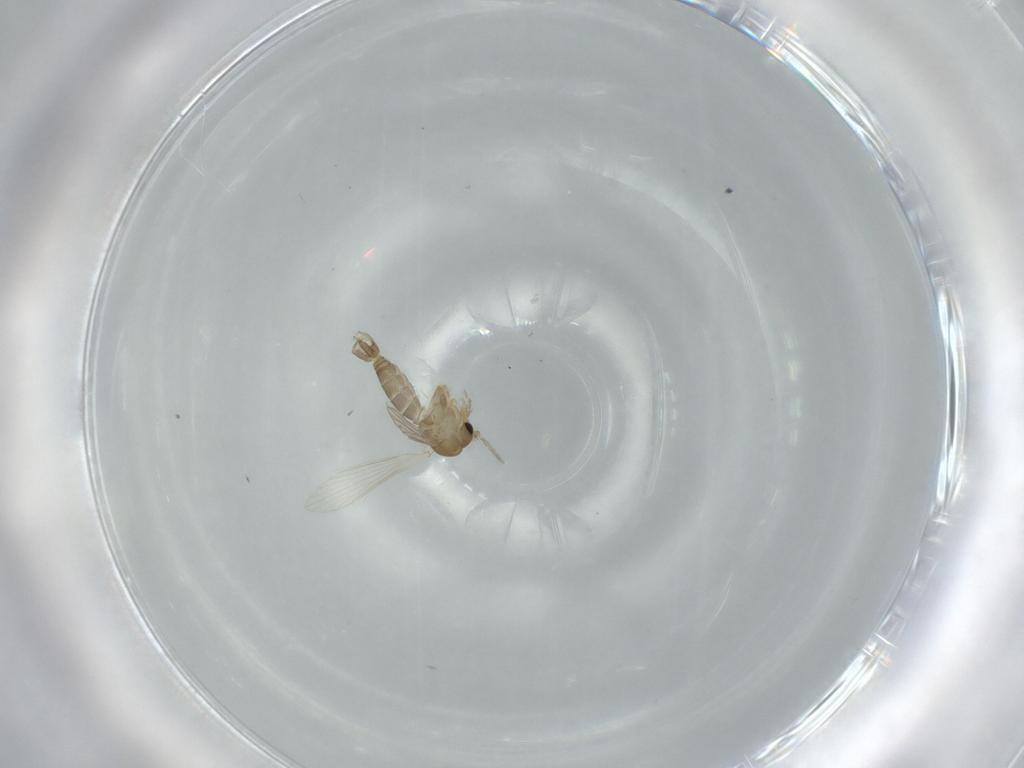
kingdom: Animalia
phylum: Arthropoda
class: Insecta
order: Diptera
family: Psychodidae
